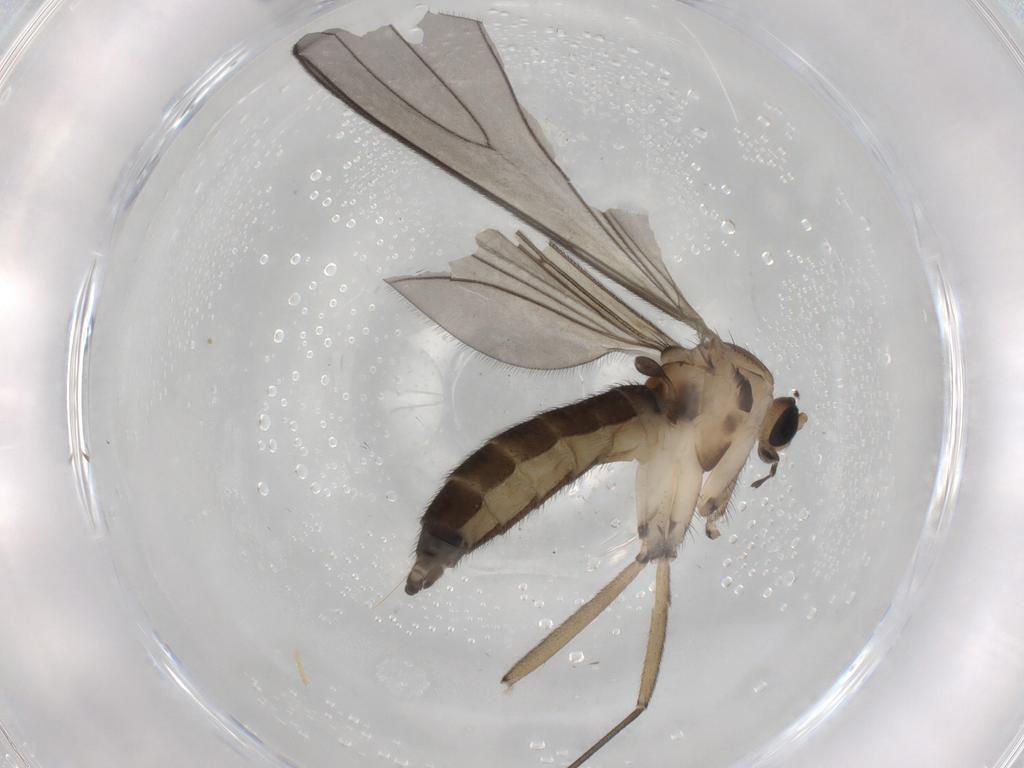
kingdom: Animalia
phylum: Arthropoda
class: Insecta
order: Diptera
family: Sciaridae
